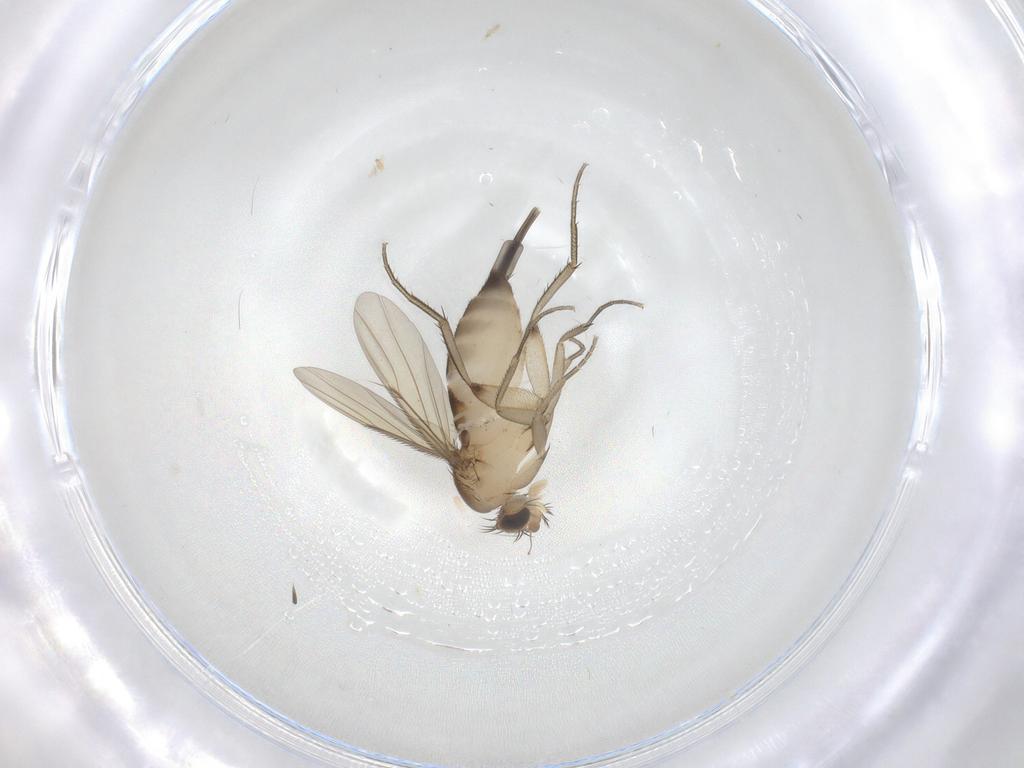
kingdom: Animalia
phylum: Arthropoda
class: Insecta
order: Diptera
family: Phoridae
